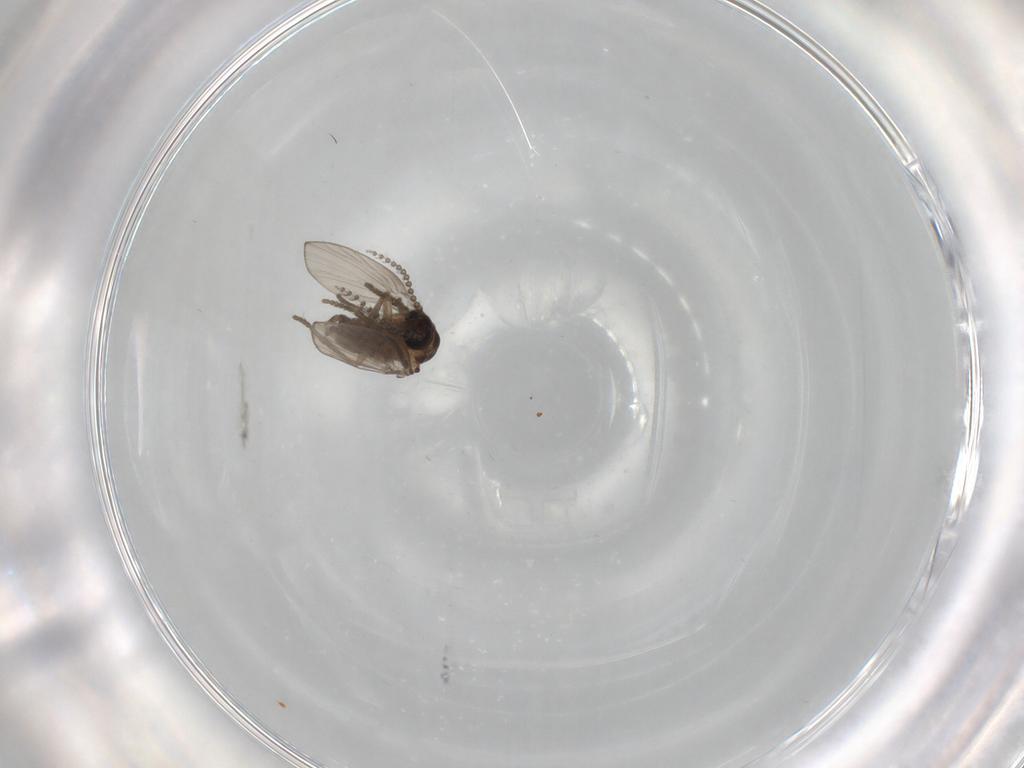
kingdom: Animalia
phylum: Arthropoda
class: Insecta
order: Diptera
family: Psychodidae
